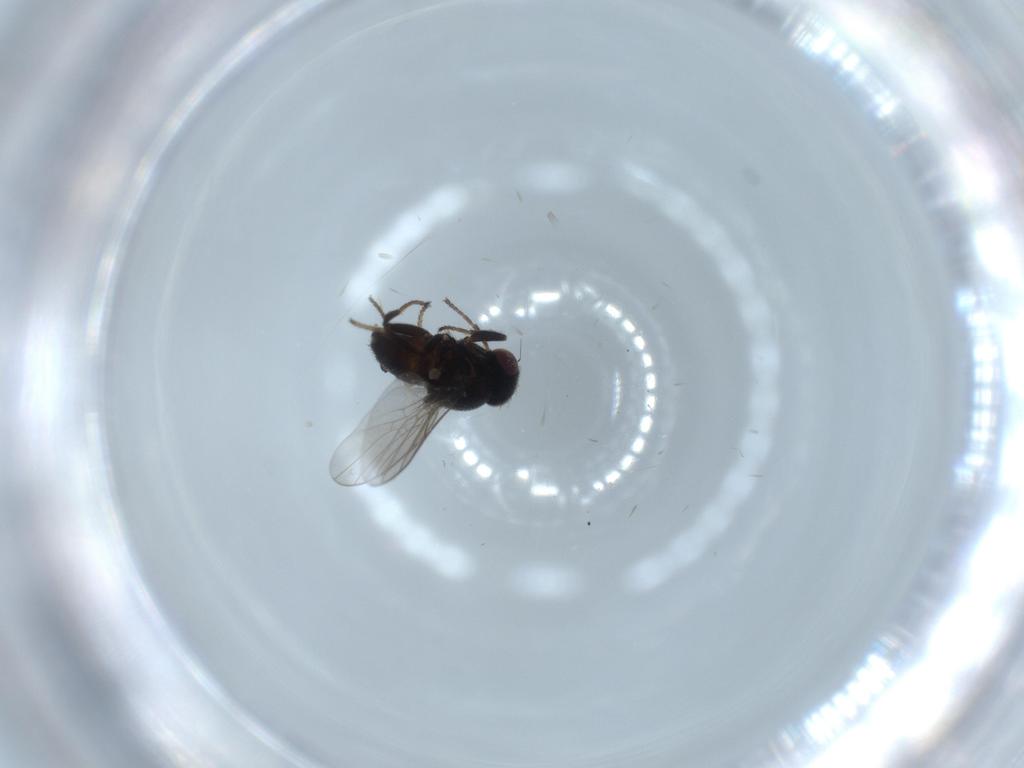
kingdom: Animalia
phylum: Arthropoda
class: Insecta
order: Diptera
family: Chloropidae
